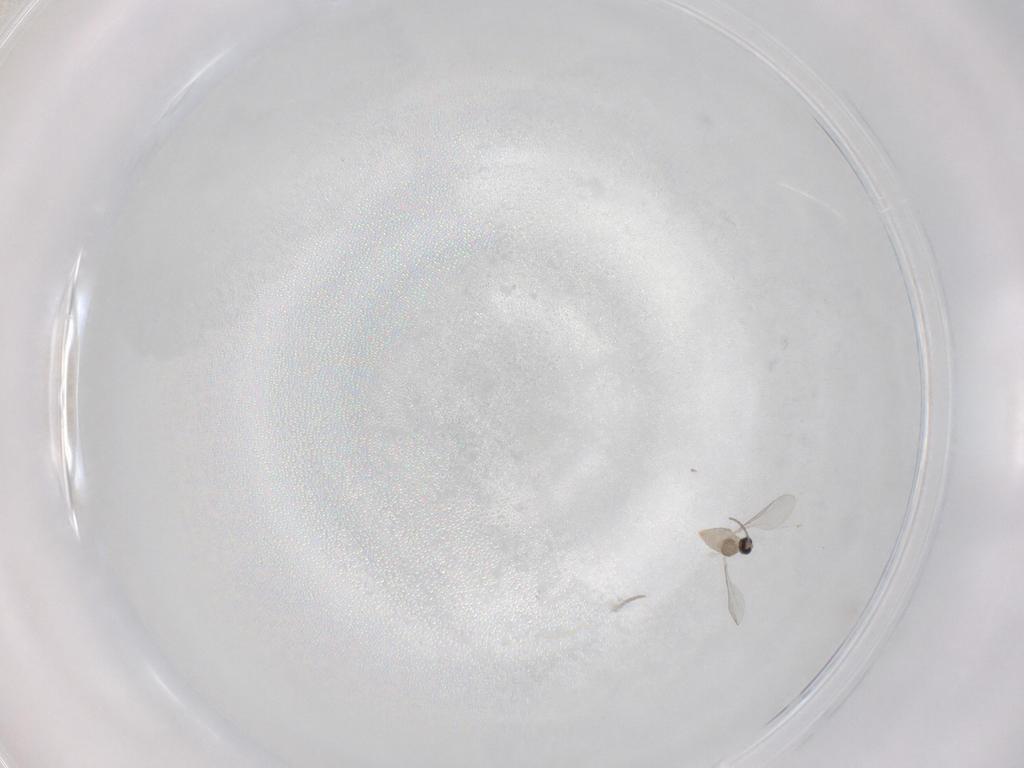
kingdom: Animalia
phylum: Arthropoda
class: Insecta
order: Diptera
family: Cecidomyiidae
